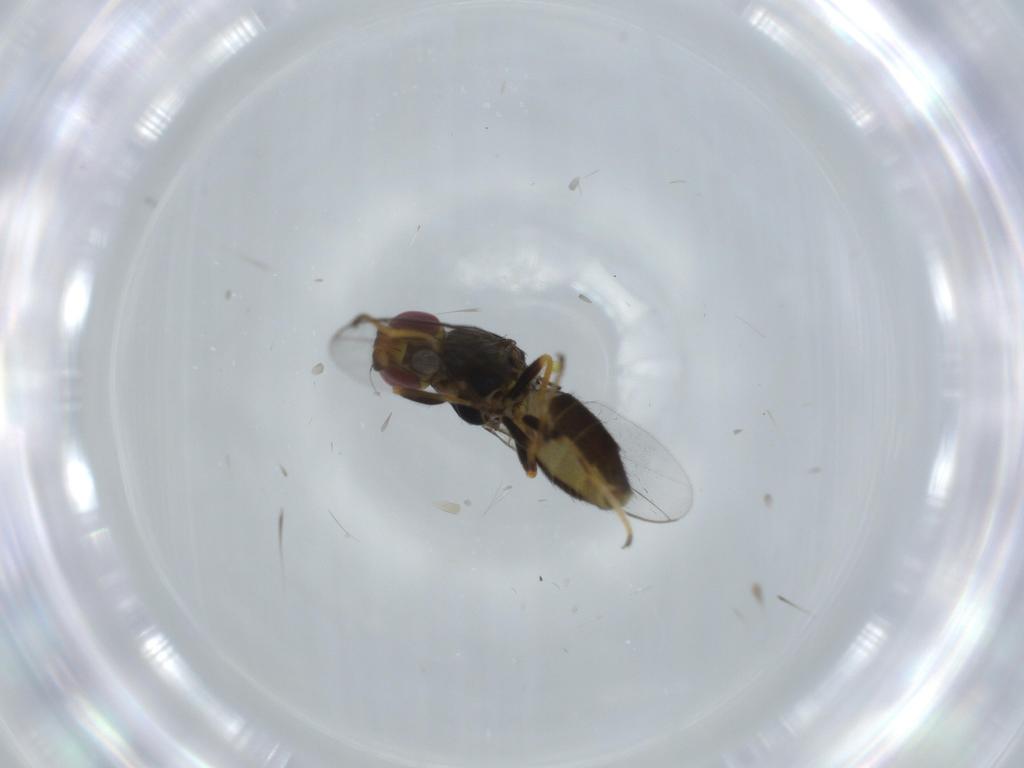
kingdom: Animalia
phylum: Arthropoda
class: Insecta
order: Diptera
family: Chloropidae
